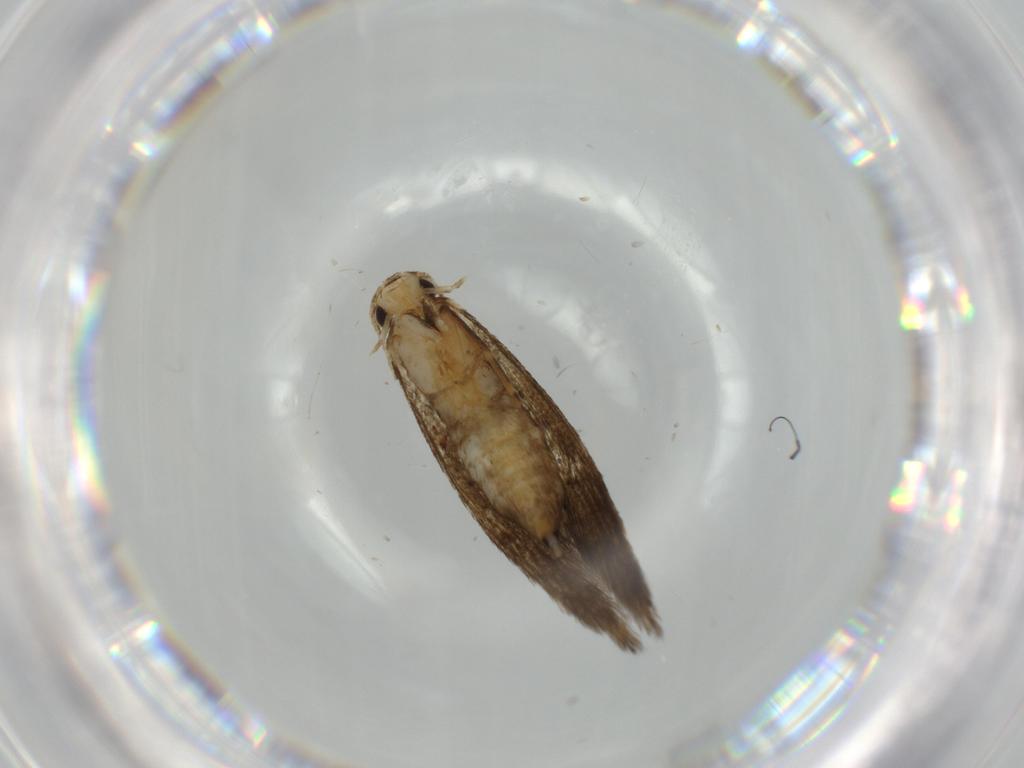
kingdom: Animalia
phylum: Arthropoda
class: Insecta
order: Lepidoptera
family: Tineidae
